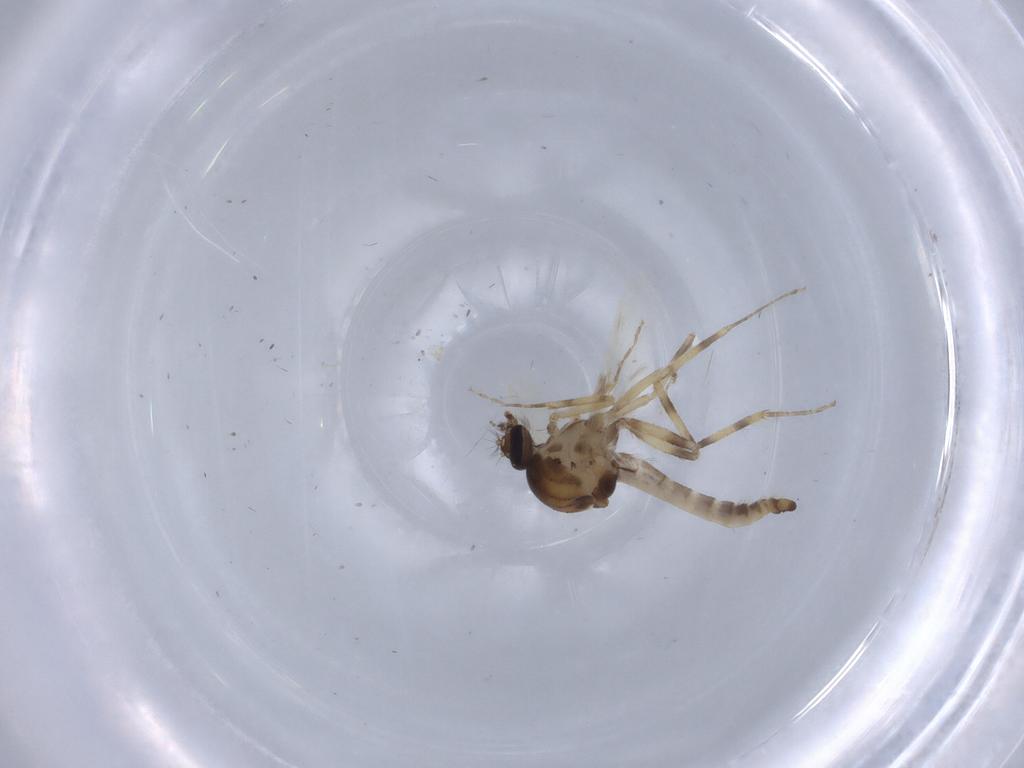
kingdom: Animalia
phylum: Arthropoda
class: Insecta
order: Diptera
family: Ceratopogonidae
